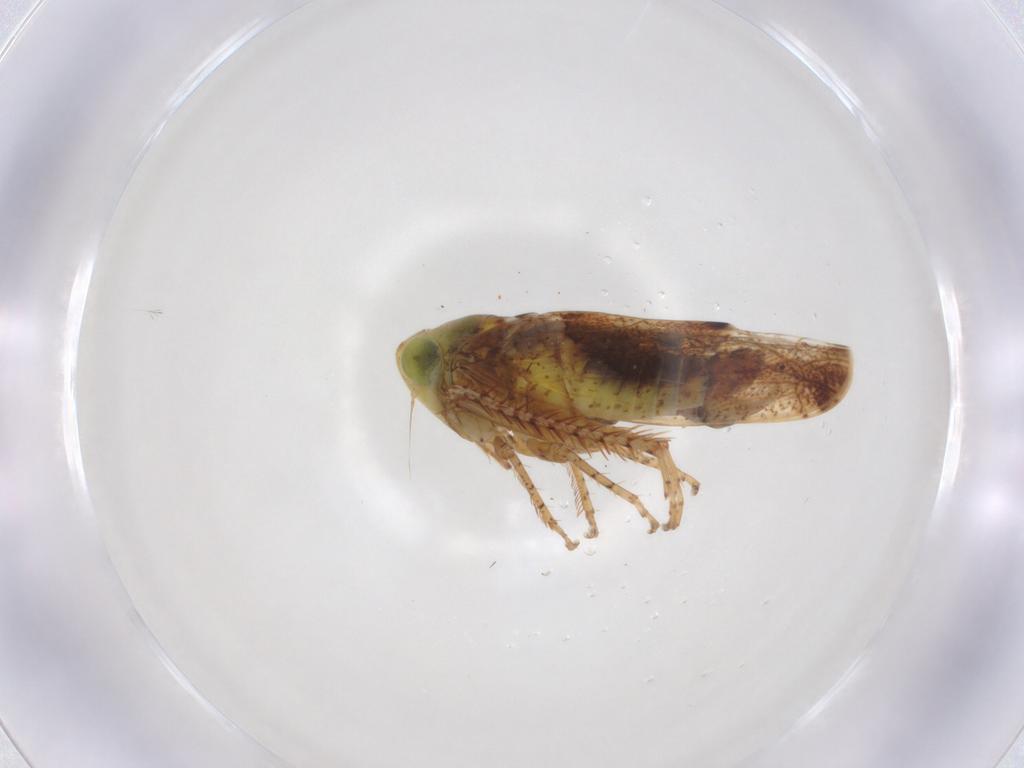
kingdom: Animalia
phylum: Arthropoda
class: Insecta
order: Hemiptera
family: Cicadellidae
